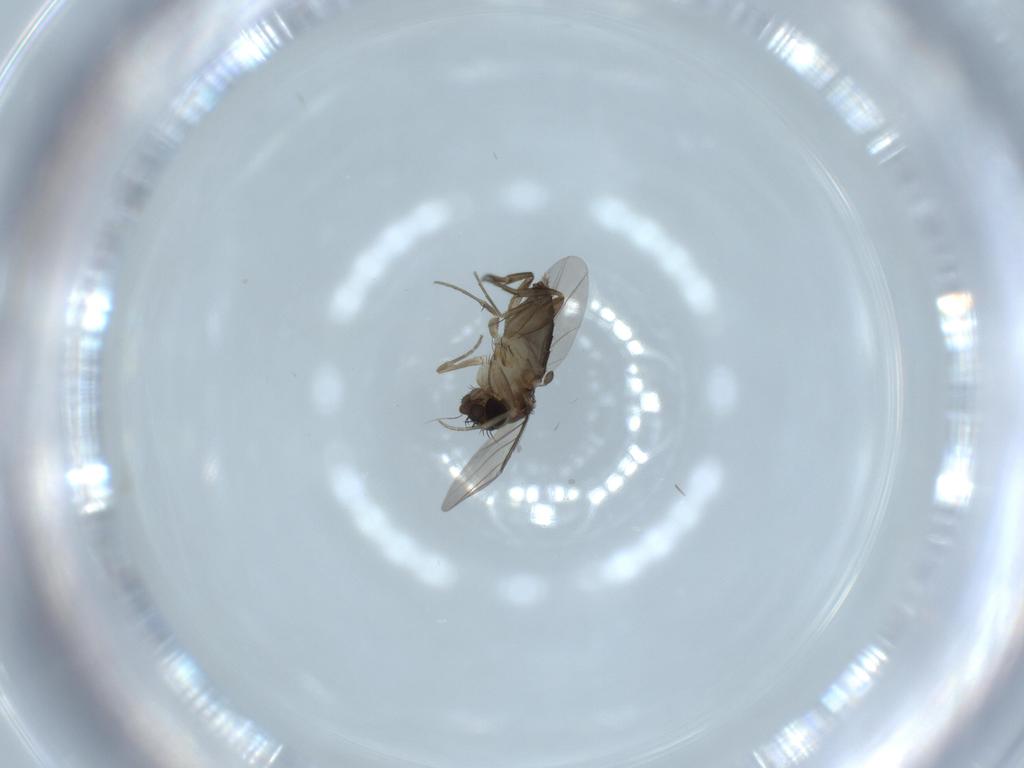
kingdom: Animalia
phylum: Arthropoda
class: Insecta
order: Diptera
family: Phoridae
